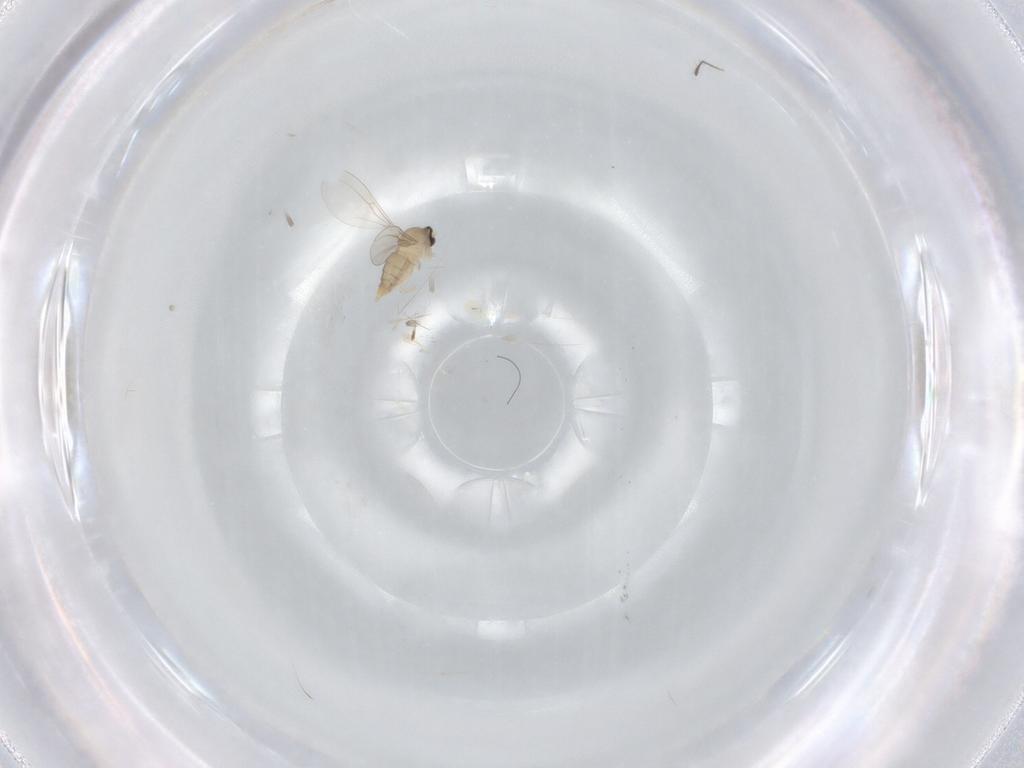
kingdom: Animalia
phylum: Arthropoda
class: Insecta
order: Diptera
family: Cecidomyiidae
